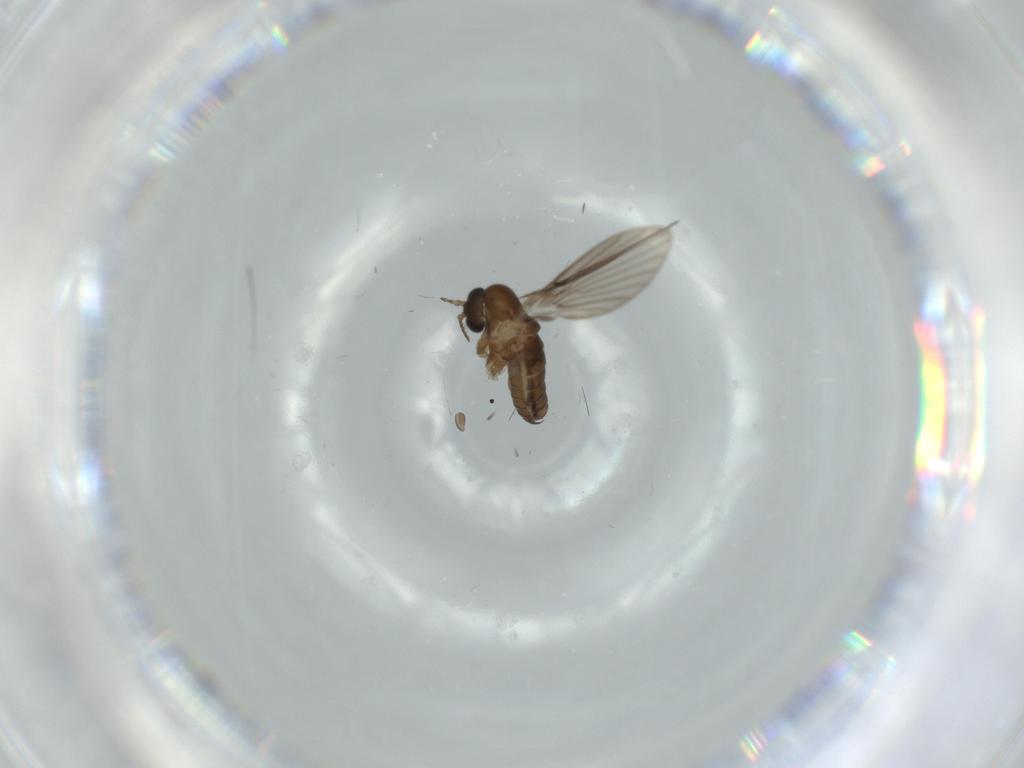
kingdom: Animalia
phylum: Arthropoda
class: Insecta
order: Diptera
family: Psychodidae
